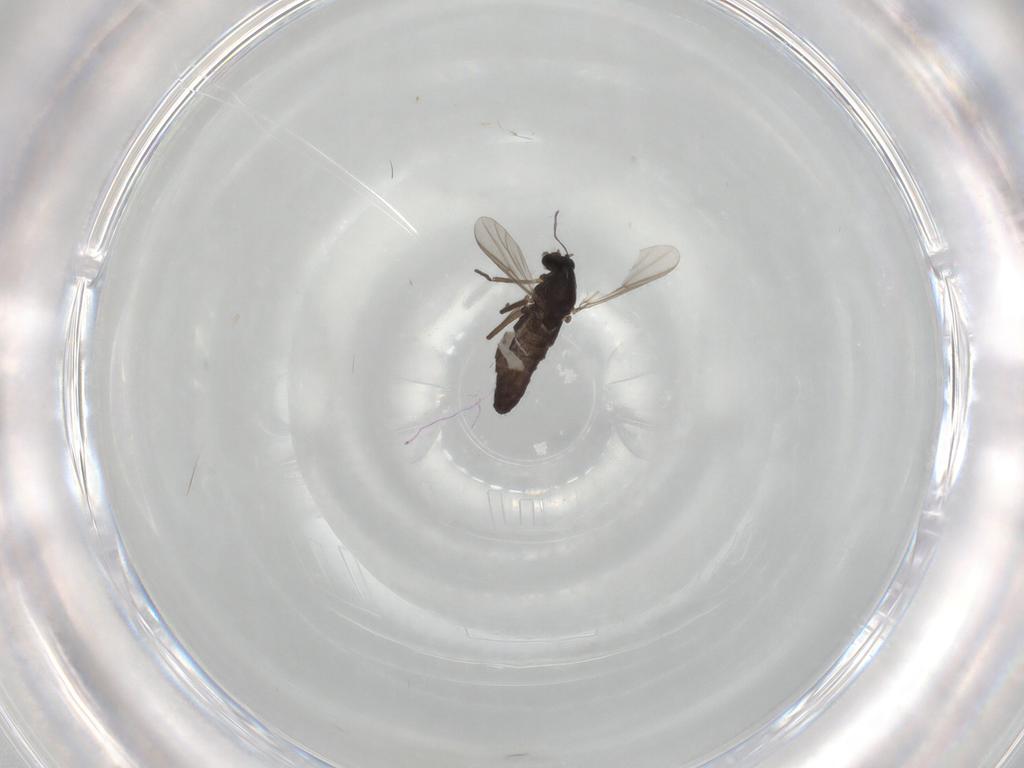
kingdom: Animalia
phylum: Arthropoda
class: Insecta
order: Diptera
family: Chironomidae
